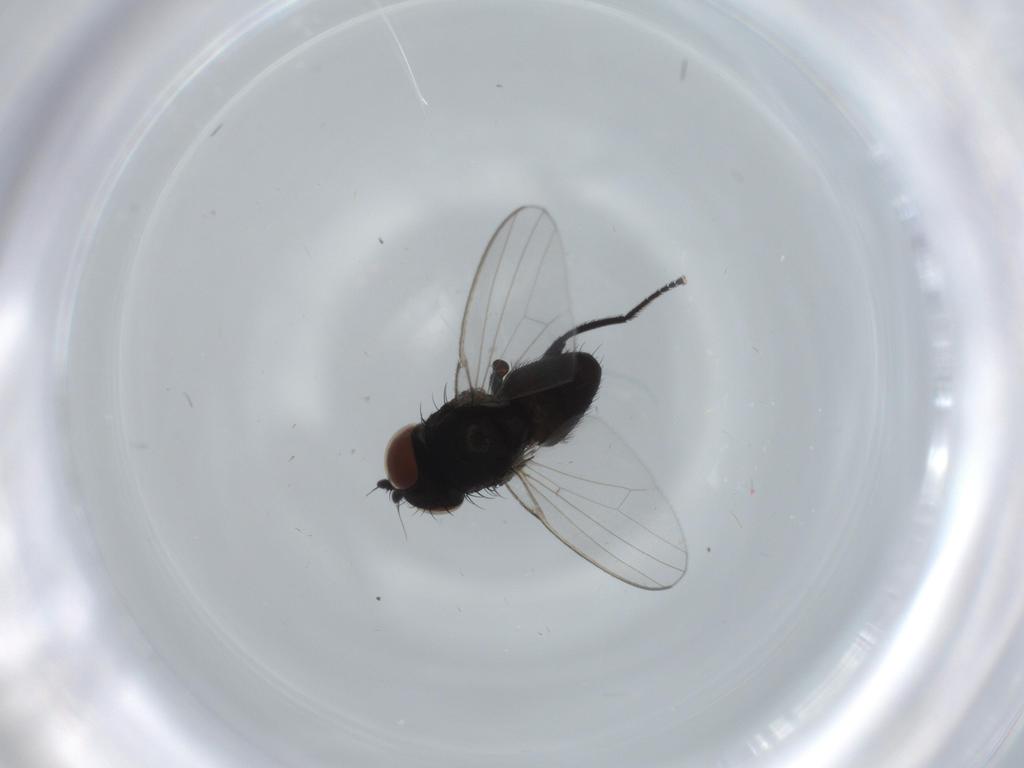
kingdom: Animalia
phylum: Arthropoda
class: Insecta
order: Diptera
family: Milichiidae
